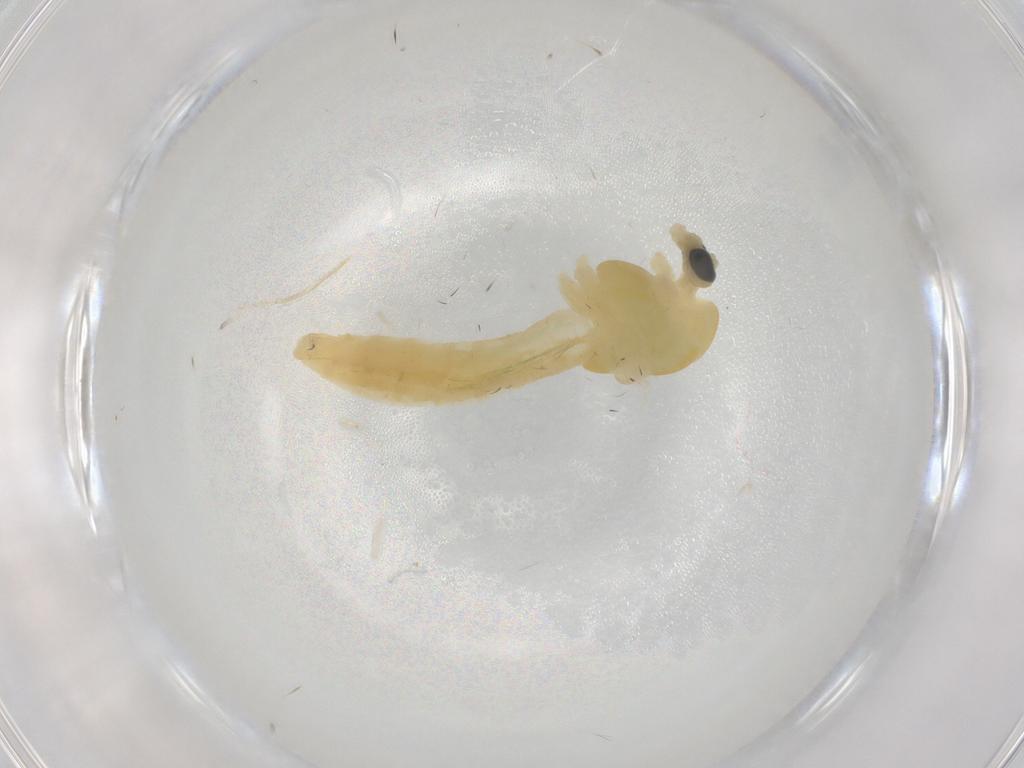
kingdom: Animalia
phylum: Arthropoda
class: Insecta
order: Diptera
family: Chironomidae
